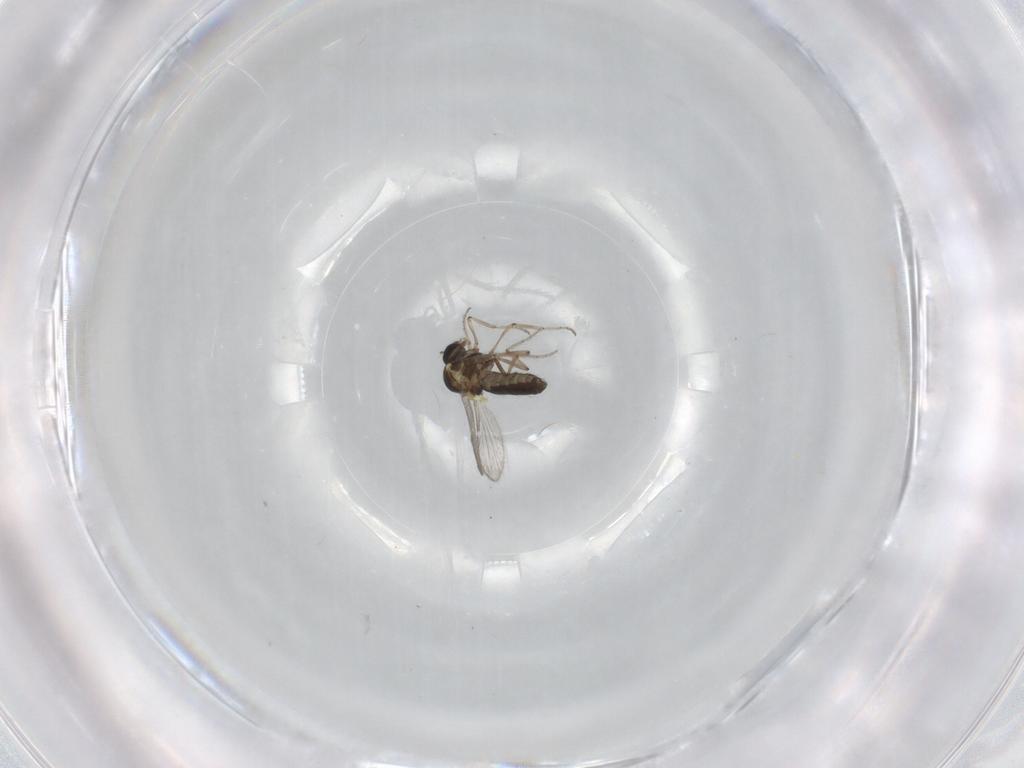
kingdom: Animalia
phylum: Arthropoda
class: Insecta
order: Diptera
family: Ceratopogonidae
